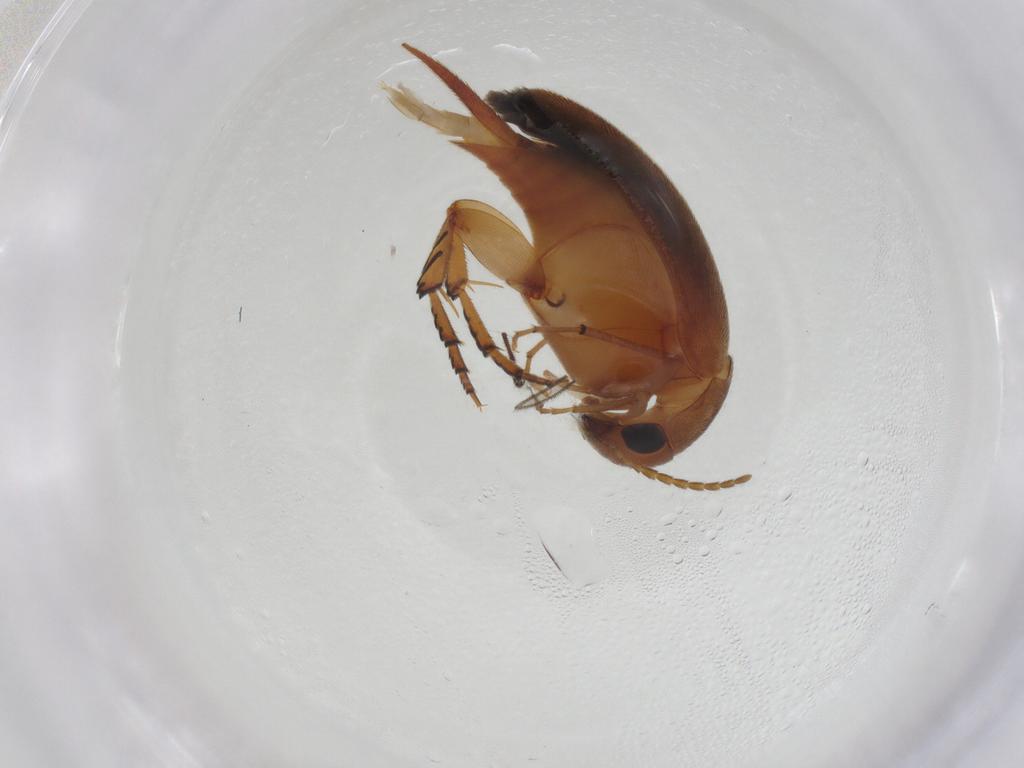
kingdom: Animalia
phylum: Arthropoda
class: Insecta
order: Coleoptera
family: Mordellidae
